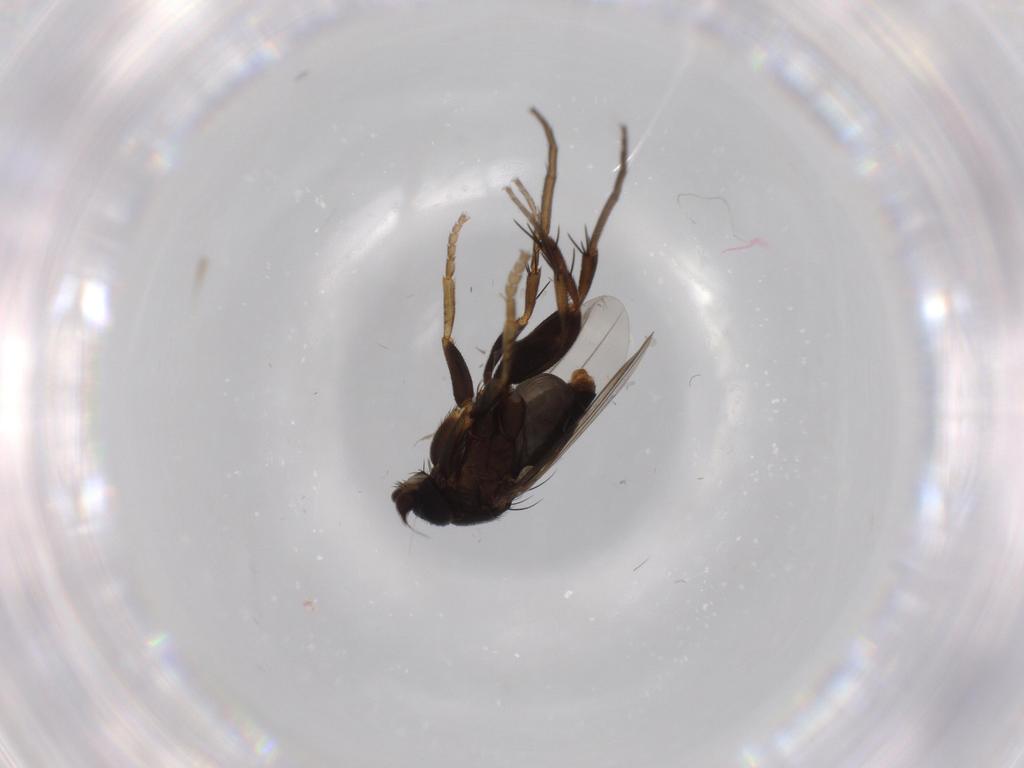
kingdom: Animalia
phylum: Arthropoda
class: Insecta
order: Diptera
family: Phoridae
